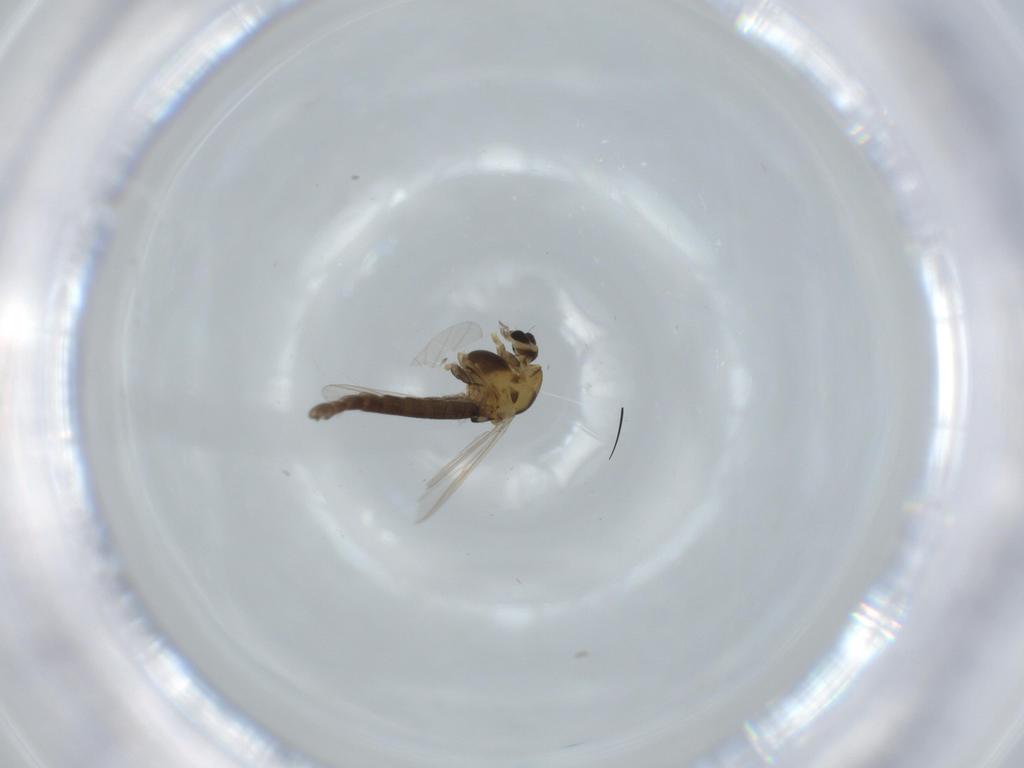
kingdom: Animalia
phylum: Arthropoda
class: Insecta
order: Diptera
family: Chironomidae
